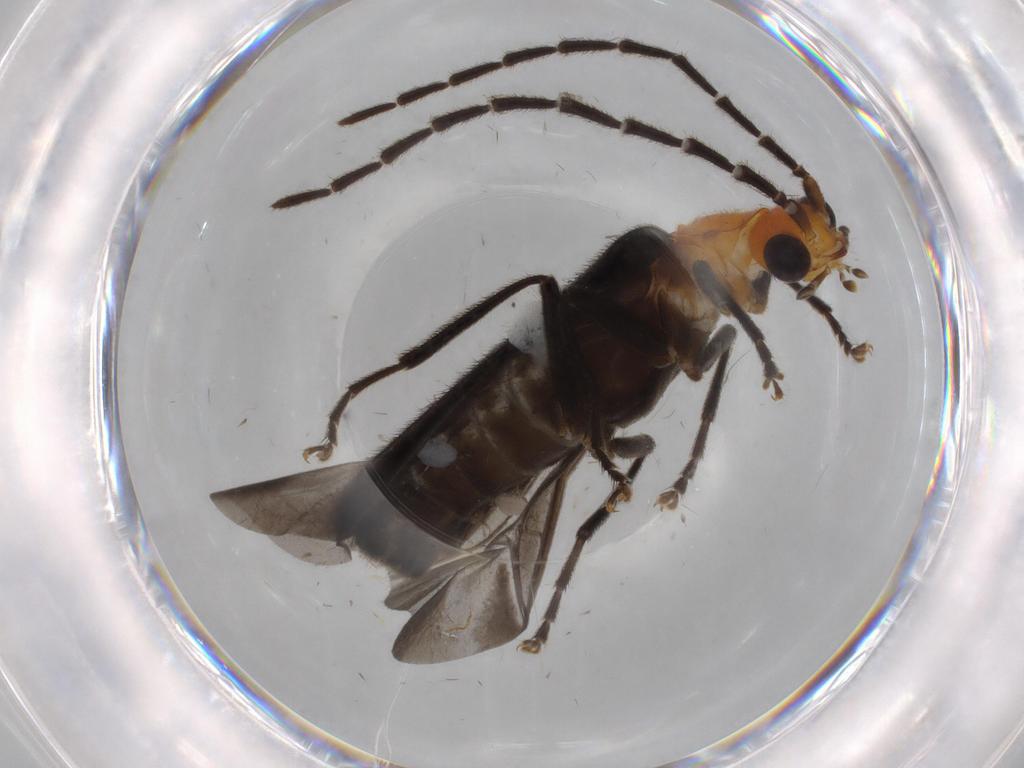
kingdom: Animalia
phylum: Arthropoda
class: Insecta
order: Coleoptera
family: Cantharidae
